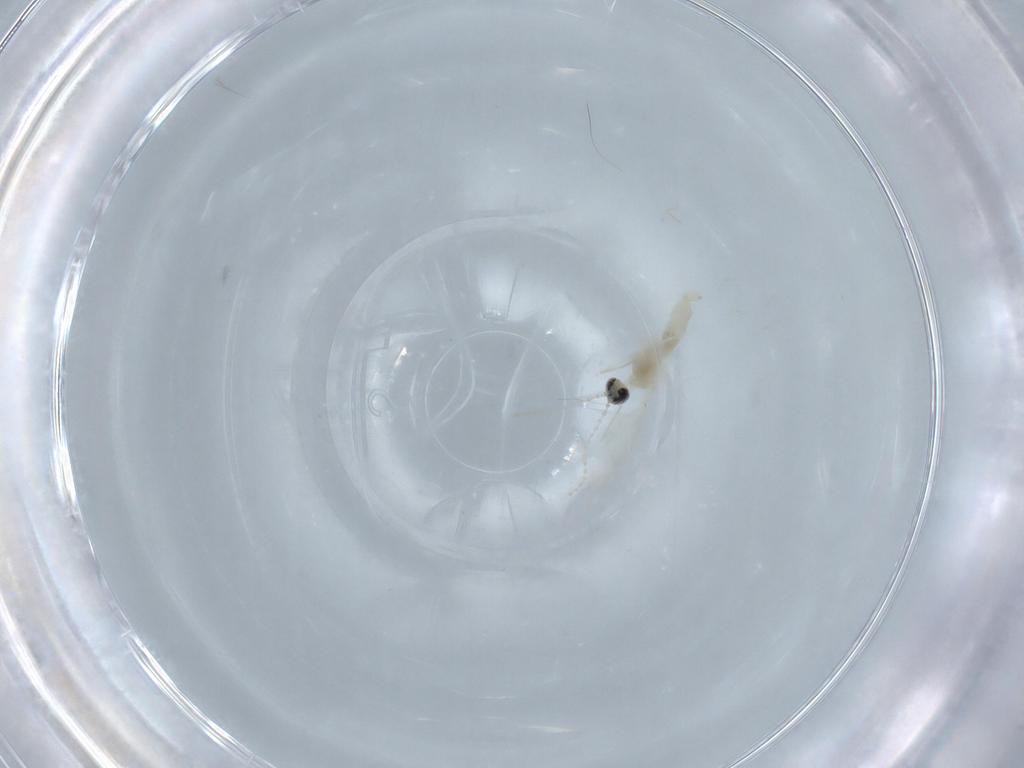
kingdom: Animalia
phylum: Arthropoda
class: Insecta
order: Diptera
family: Cecidomyiidae
